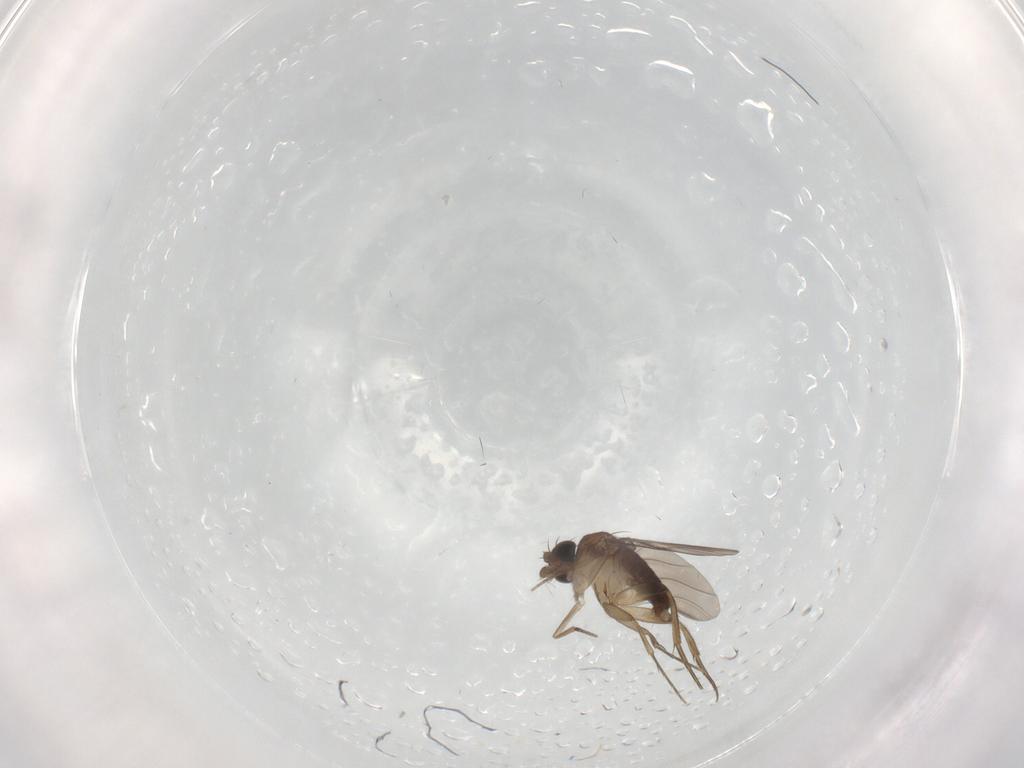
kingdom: Animalia
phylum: Arthropoda
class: Insecta
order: Diptera
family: Phoridae
